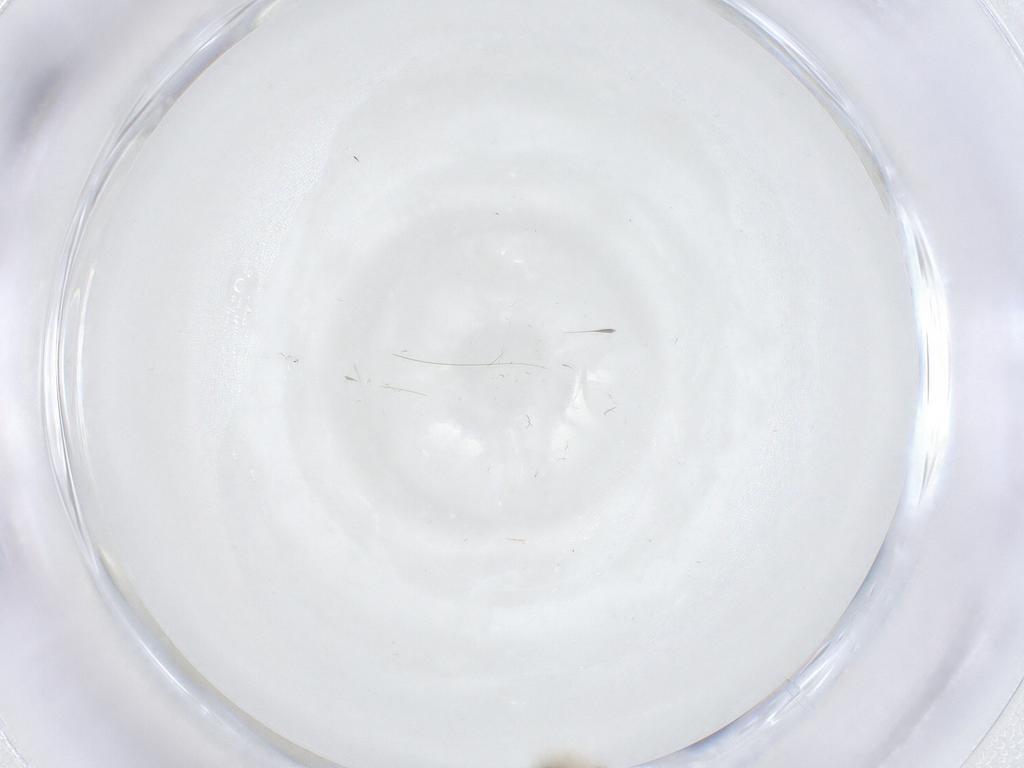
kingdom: Animalia
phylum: Arthropoda
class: Insecta
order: Diptera
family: Cecidomyiidae
